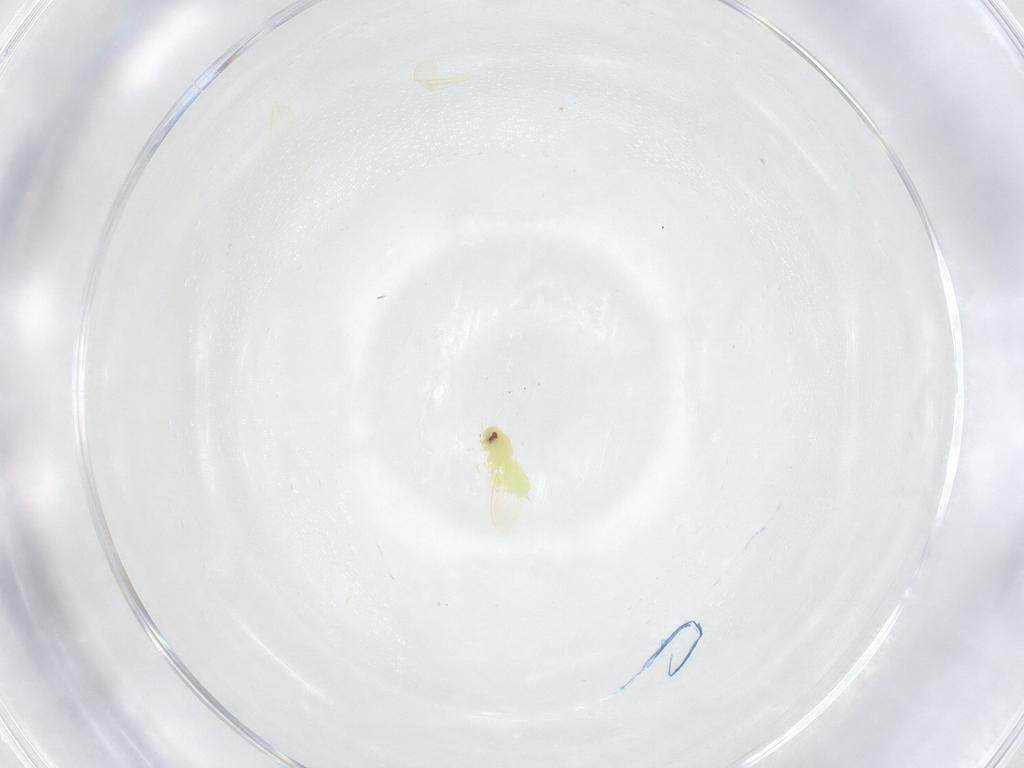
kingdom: Animalia
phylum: Arthropoda
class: Insecta
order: Hemiptera
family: Aleyrodidae
